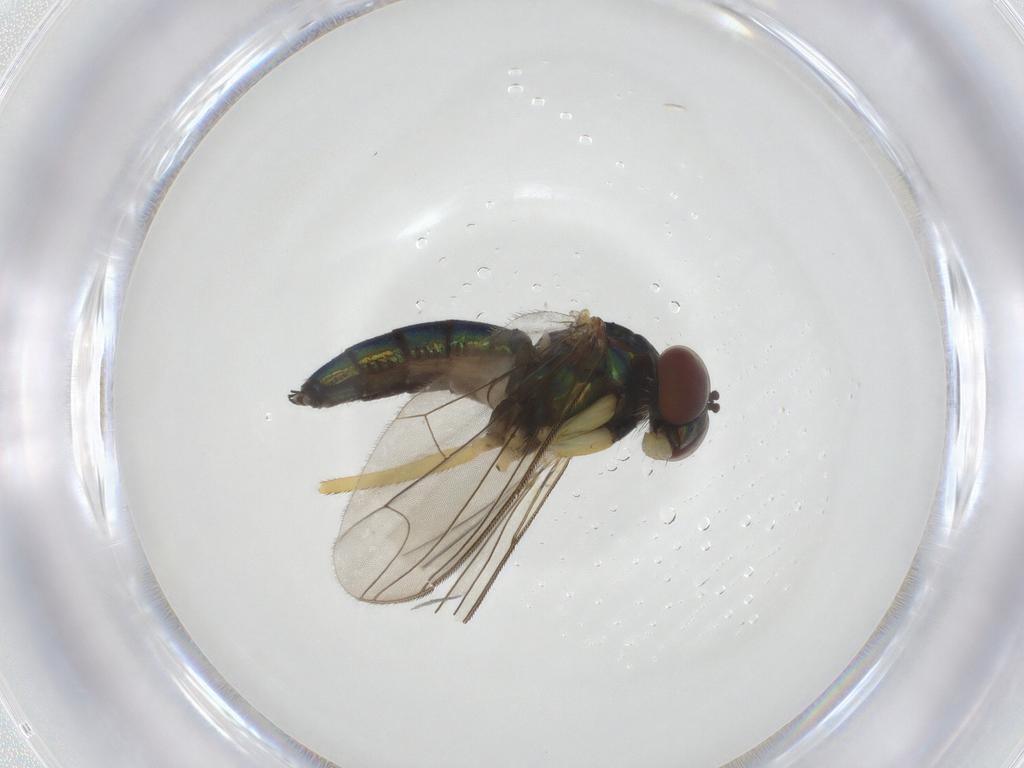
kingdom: Animalia
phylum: Arthropoda
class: Insecta
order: Diptera
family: Dolichopodidae
